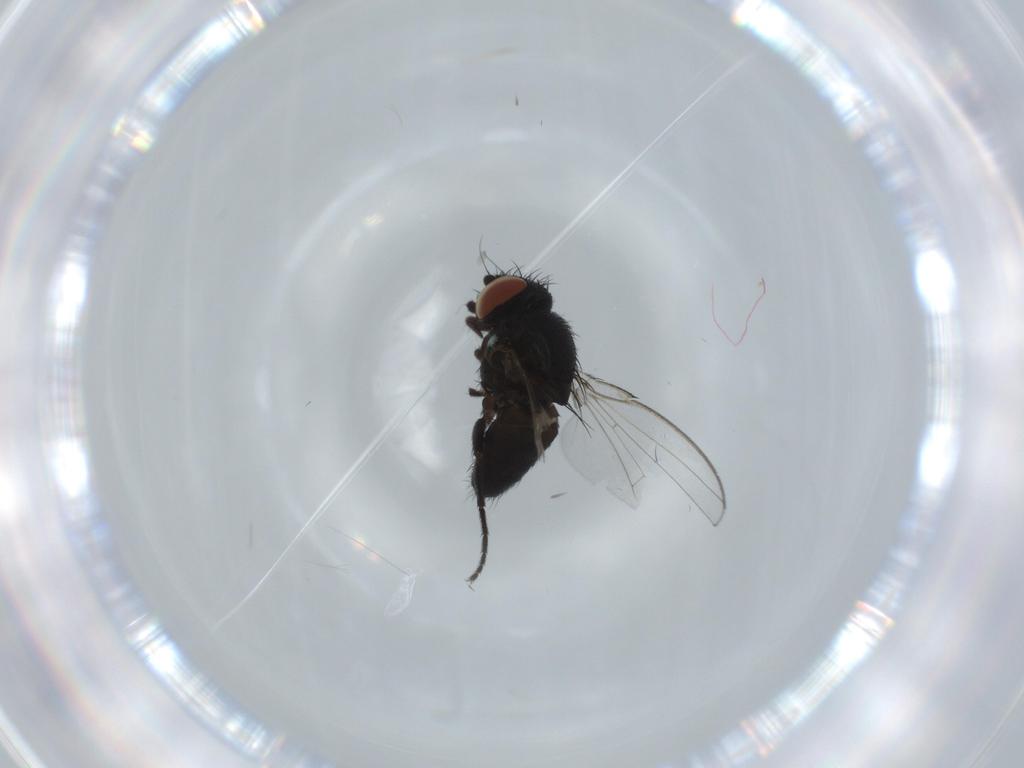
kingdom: Animalia
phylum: Arthropoda
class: Insecta
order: Diptera
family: Milichiidae
